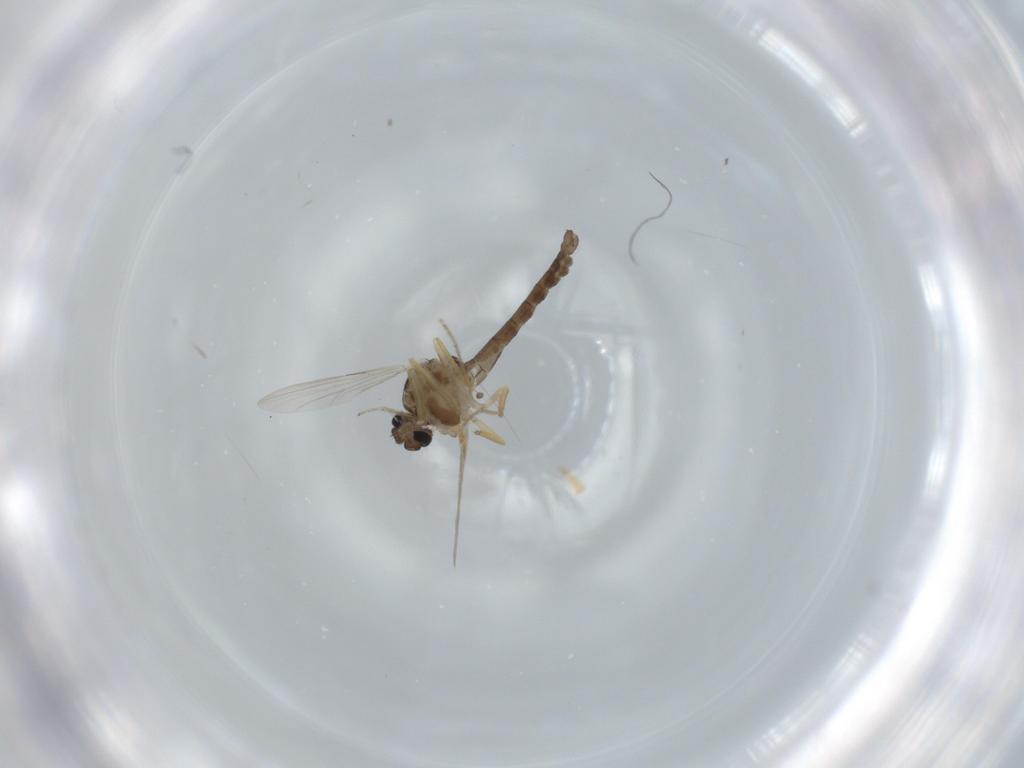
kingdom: Animalia
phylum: Arthropoda
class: Insecta
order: Diptera
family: Ceratopogonidae
